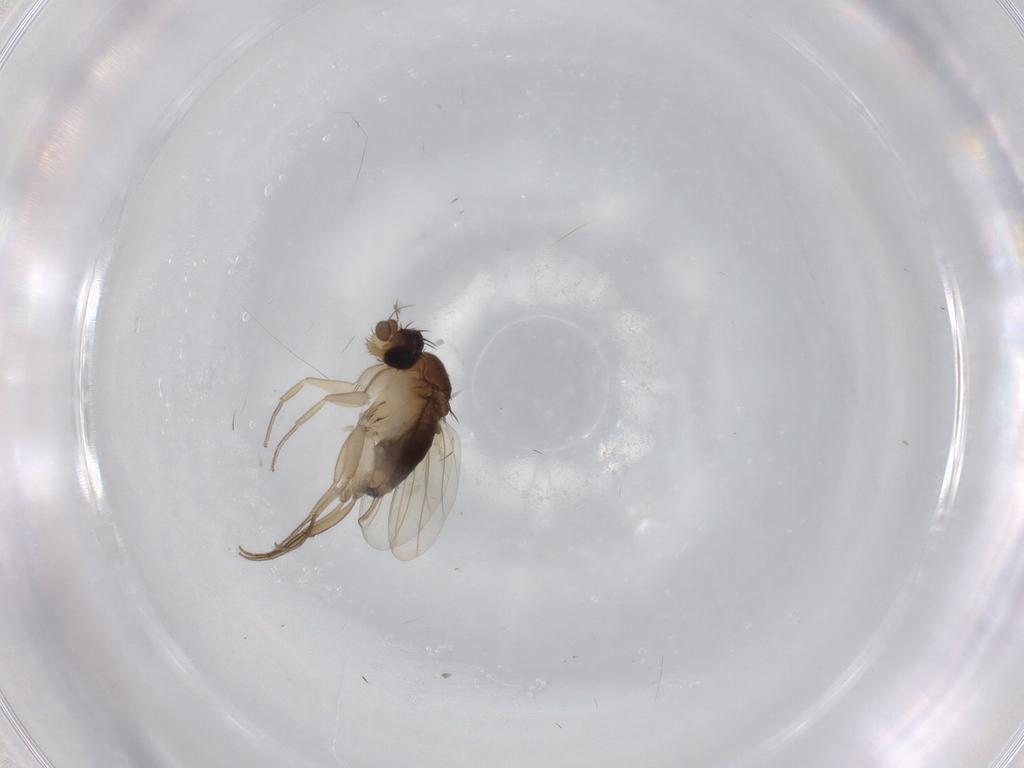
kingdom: Animalia
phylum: Arthropoda
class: Insecta
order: Diptera
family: Phoridae
